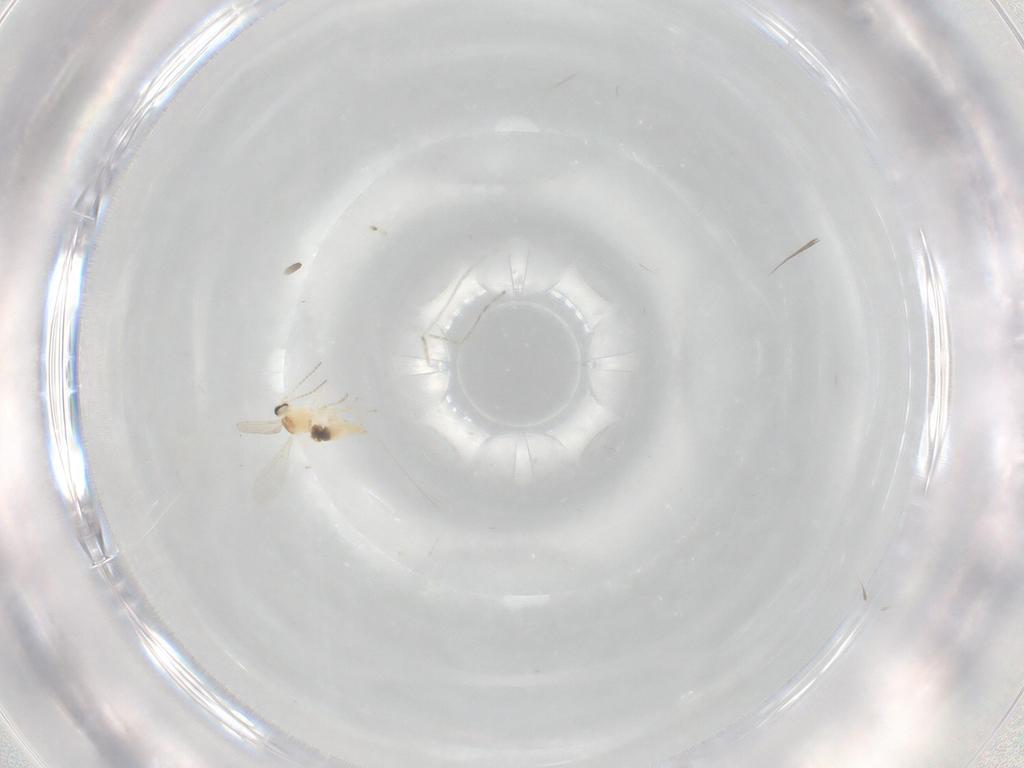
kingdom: Animalia
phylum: Arthropoda
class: Insecta
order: Diptera
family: Cecidomyiidae
